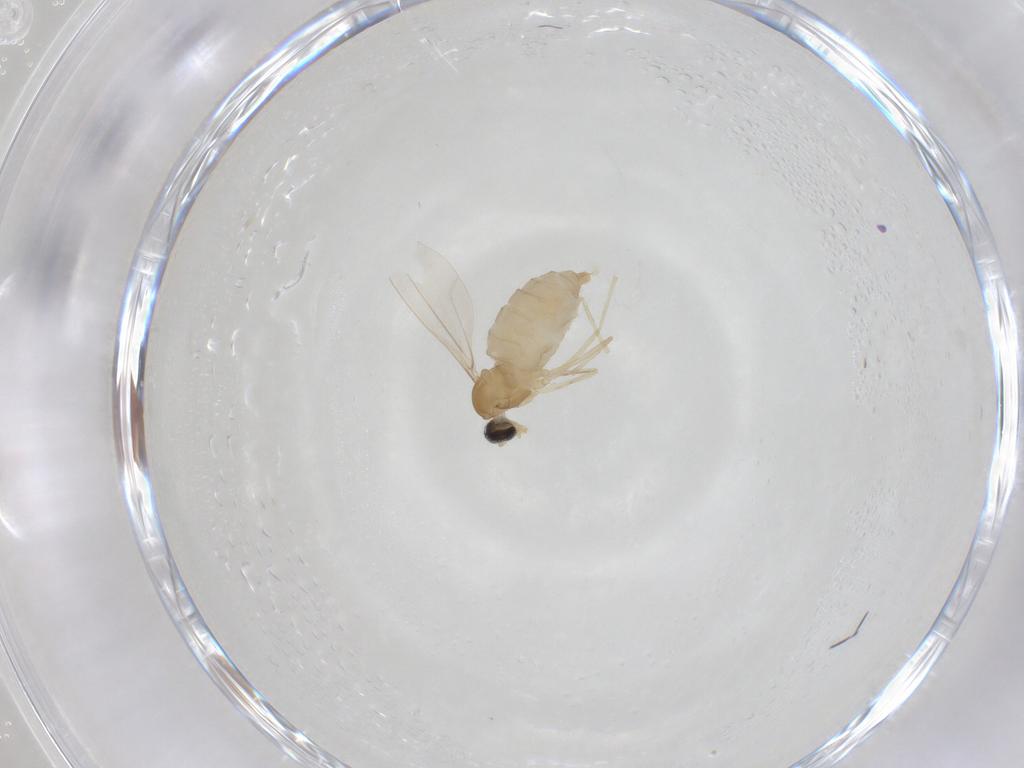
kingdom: Animalia
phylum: Arthropoda
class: Insecta
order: Diptera
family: Cecidomyiidae
